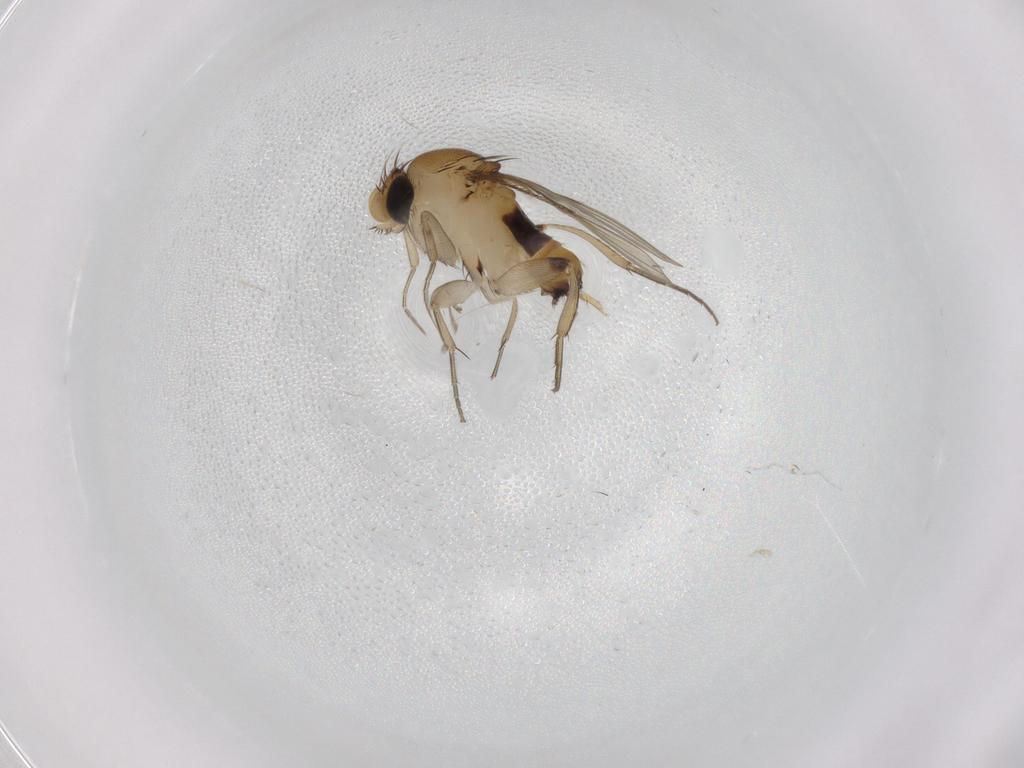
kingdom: Animalia
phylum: Arthropoda
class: Insecta
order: Diptera
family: Phoridae
